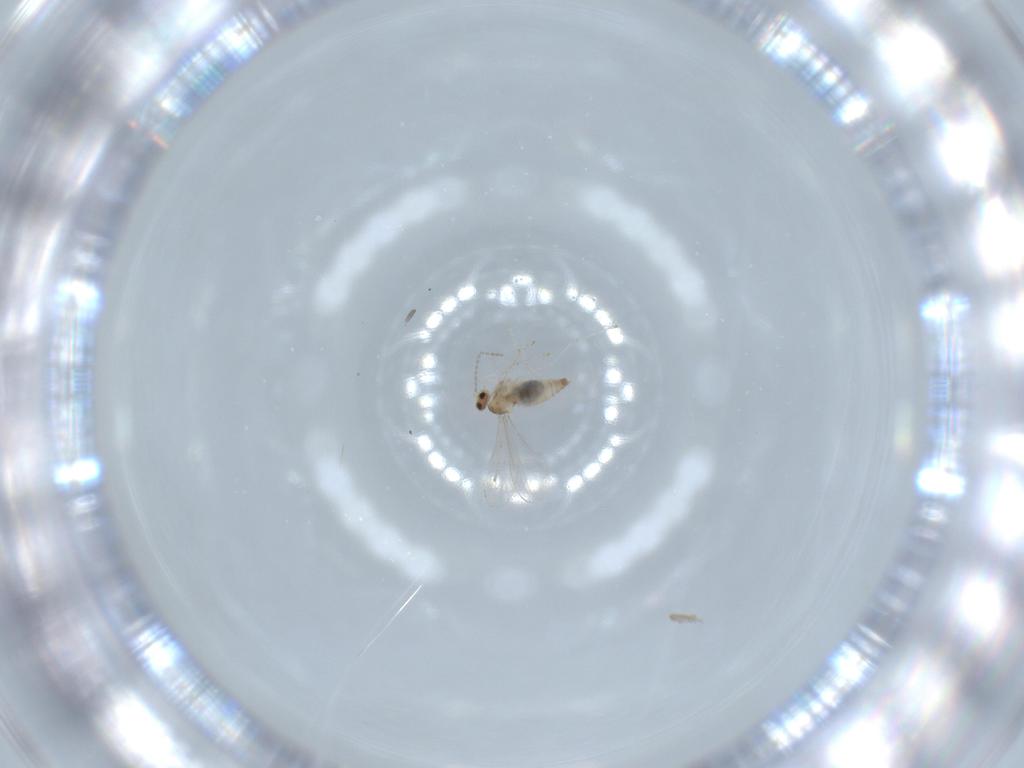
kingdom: Animalia
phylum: Arthropoda
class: Insecta
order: Diptera
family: Cecidomyiidae
